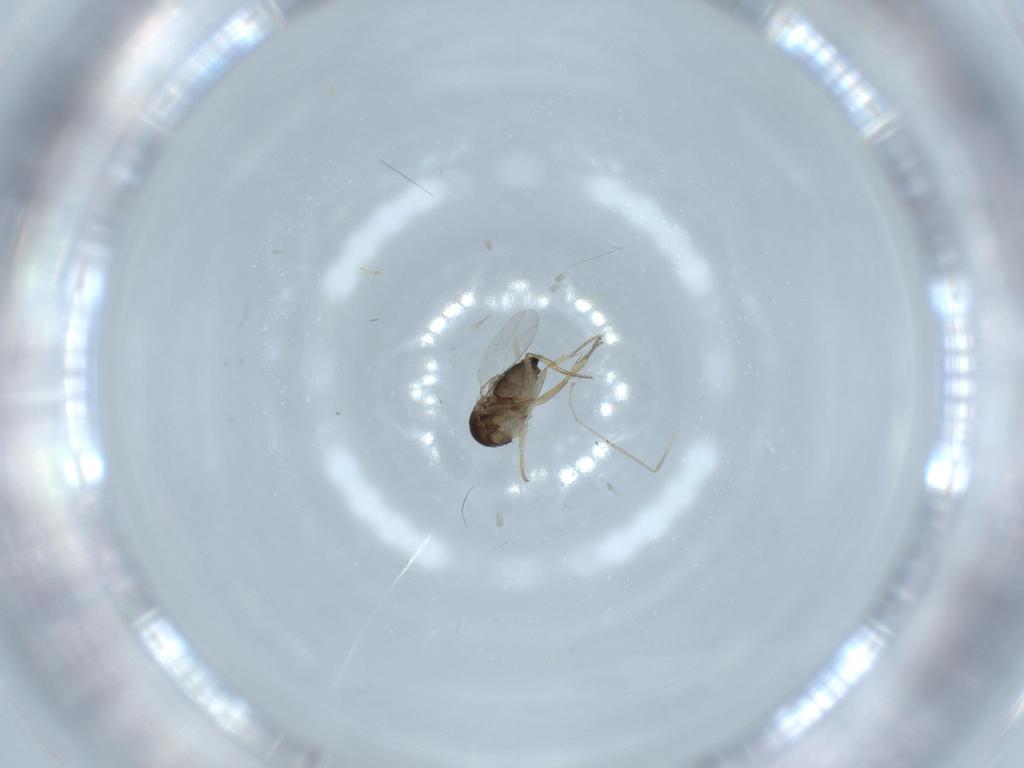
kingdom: Animalia
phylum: Arthropoda
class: Insecta
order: Diptera
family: Phoridae
